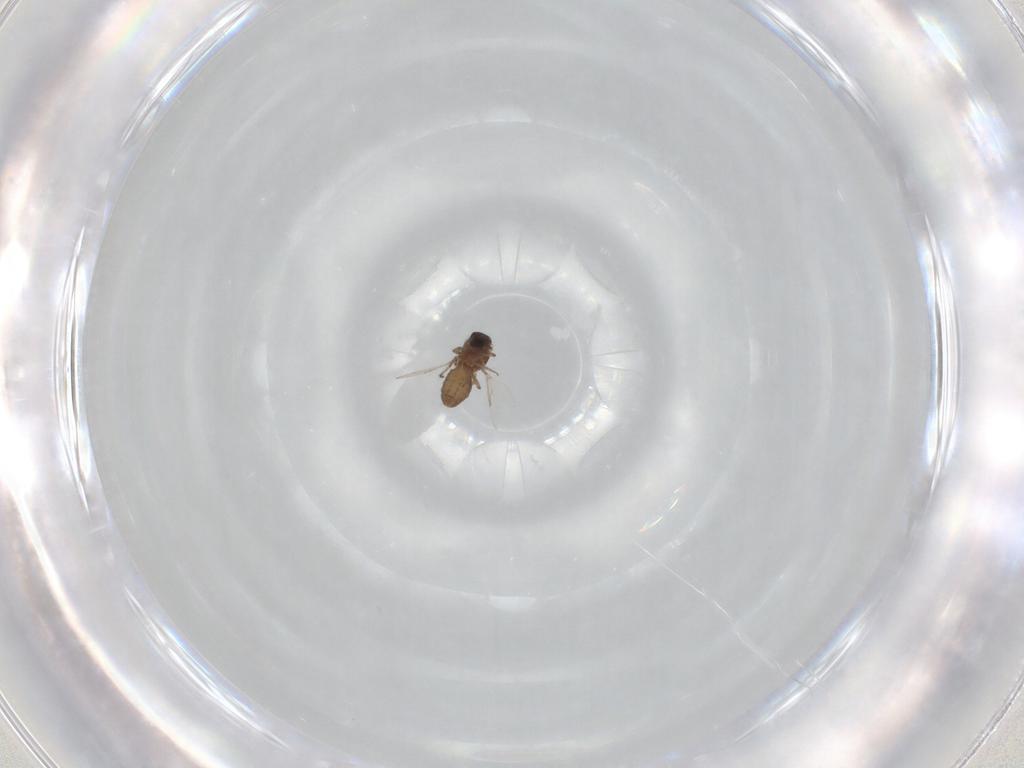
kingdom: Animalia
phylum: Arthropoda
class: Insecta
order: Diptera
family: Ceratopogonidae
